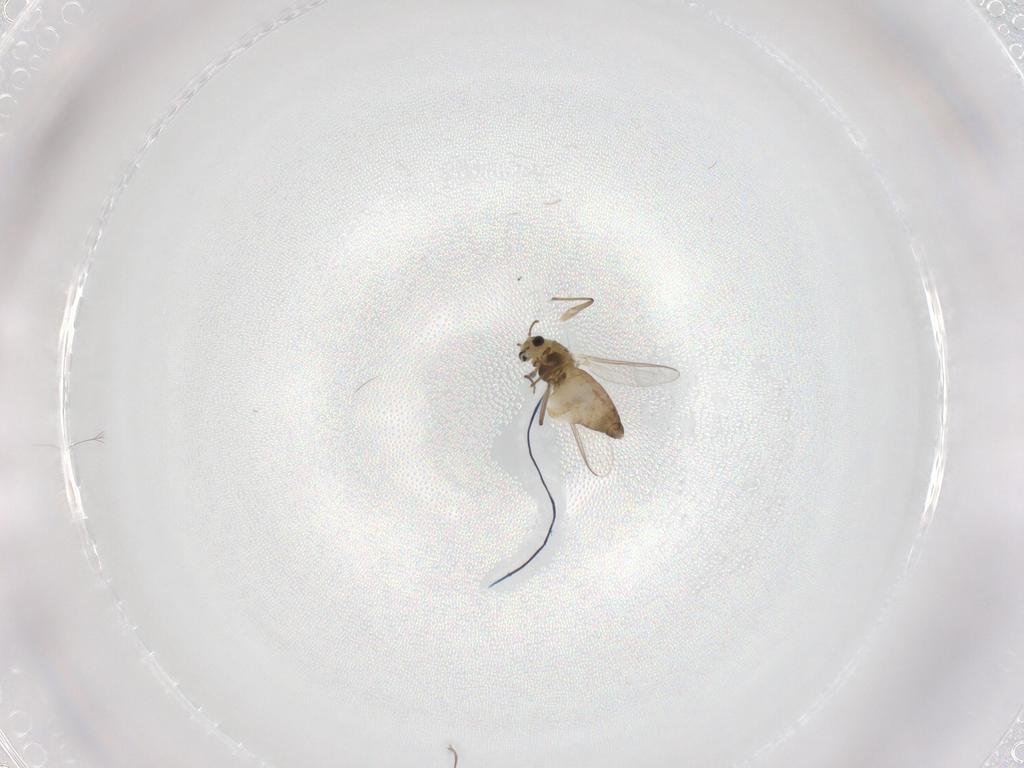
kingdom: Animalia
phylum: Arthropoda
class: Insecta
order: Diptera
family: Chironomidae
